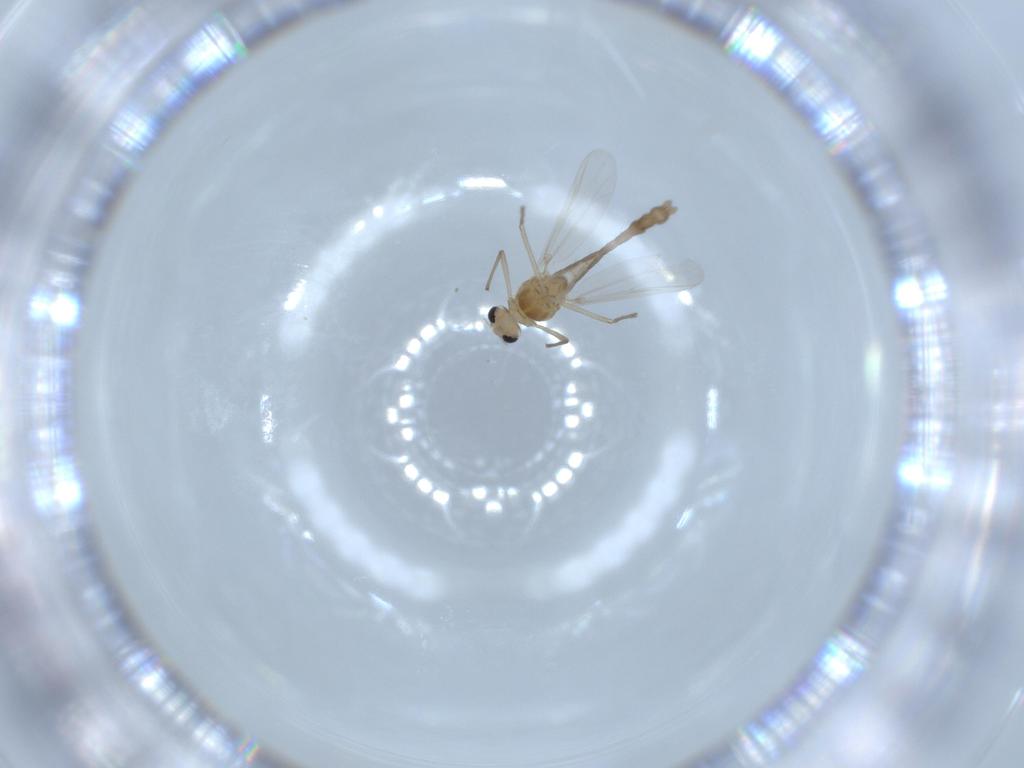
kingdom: Animalia
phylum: Arthropoda
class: Insecta
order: Diptera
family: Chironomidae
